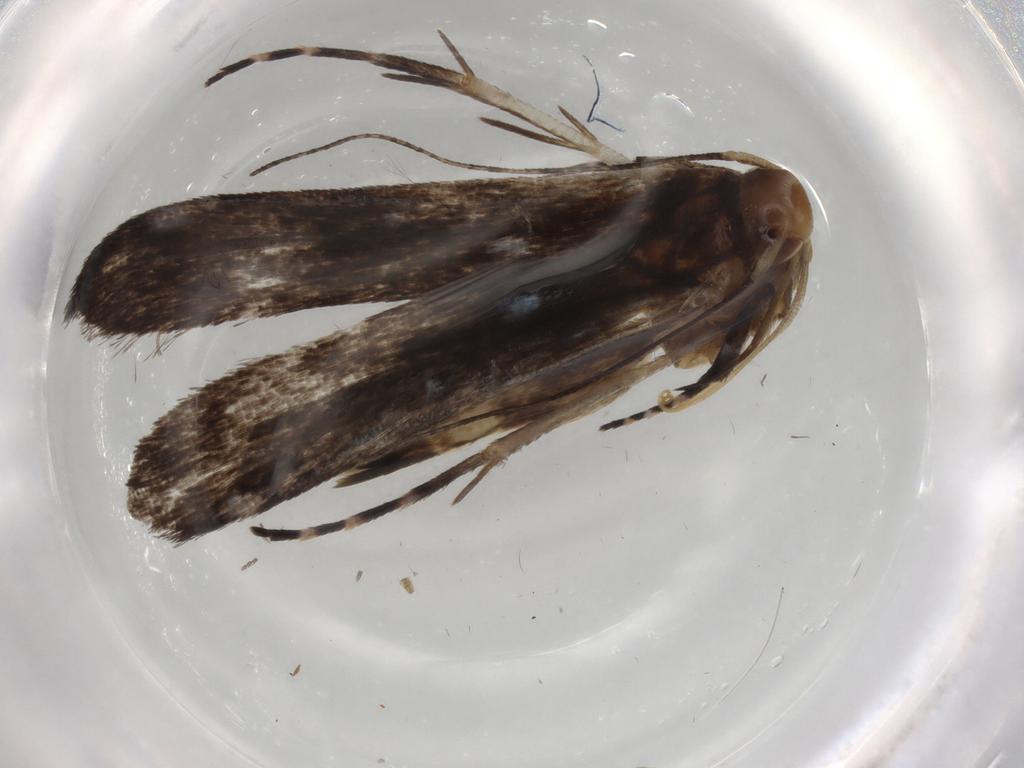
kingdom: Animalia
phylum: Arthropoda
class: Insecta
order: Lepidoptera
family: Gelechiidae
